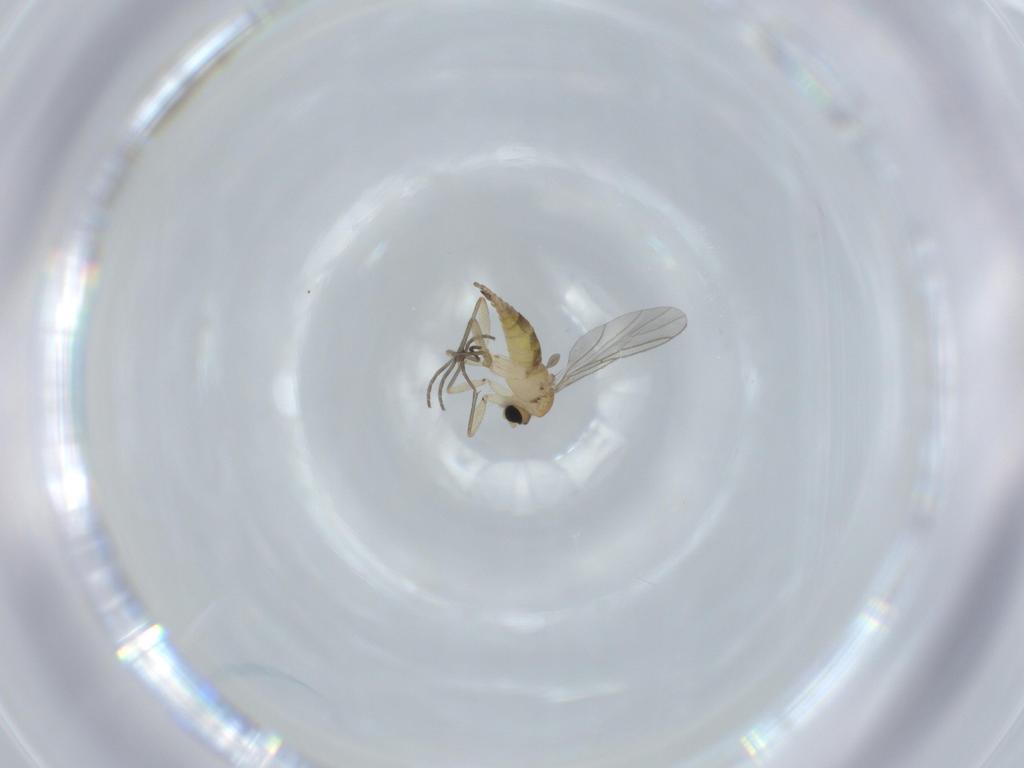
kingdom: Animalia
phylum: Arthropoda
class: Insecta
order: Diptera
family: Sciaridae
